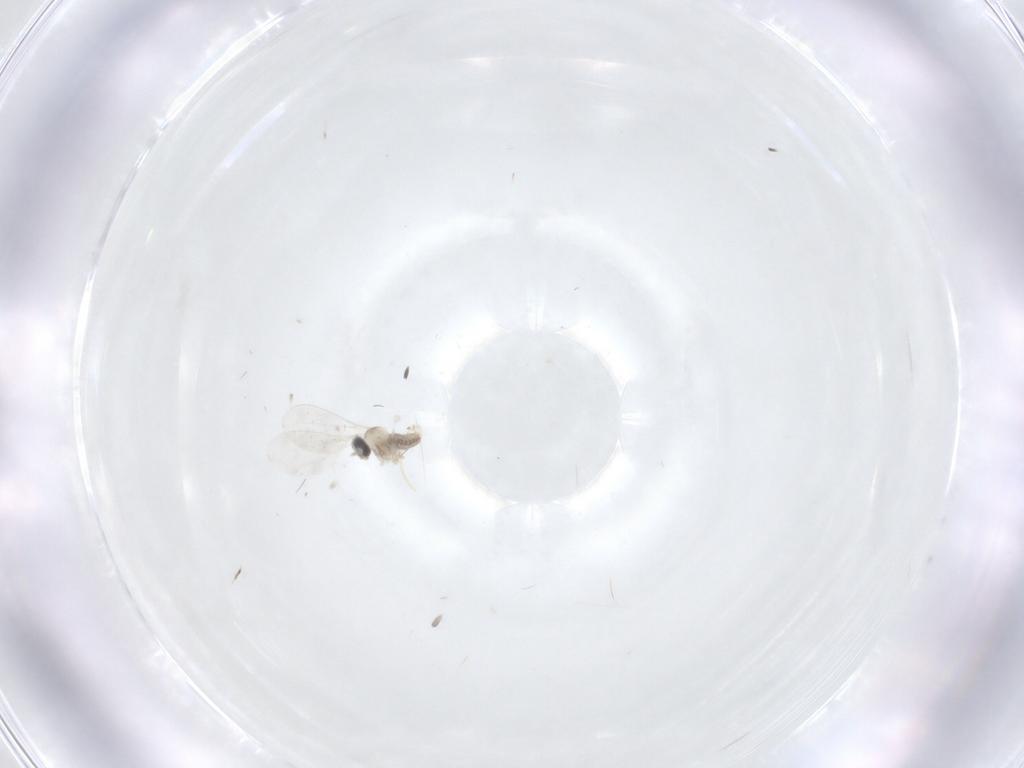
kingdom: Animalia
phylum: Arthropoda
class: Insecta
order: Diptera
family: Cecidomyiidae
